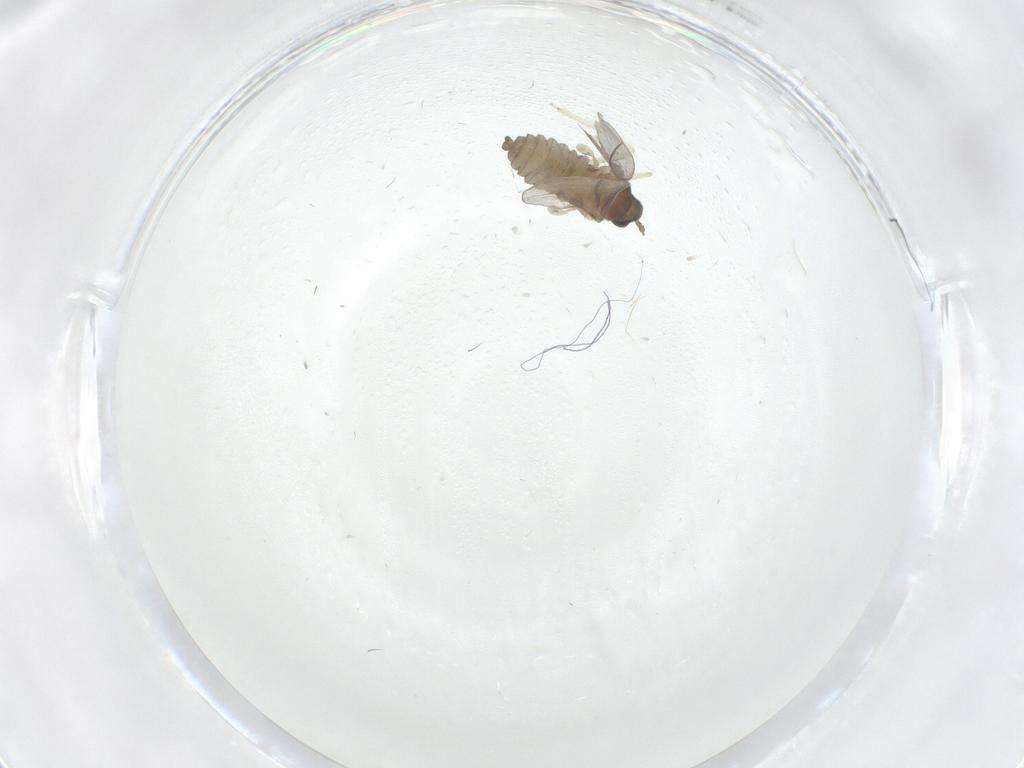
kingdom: Animalia
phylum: Arthropoda
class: Insecta
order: Diptera
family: Cecidomyiidae
